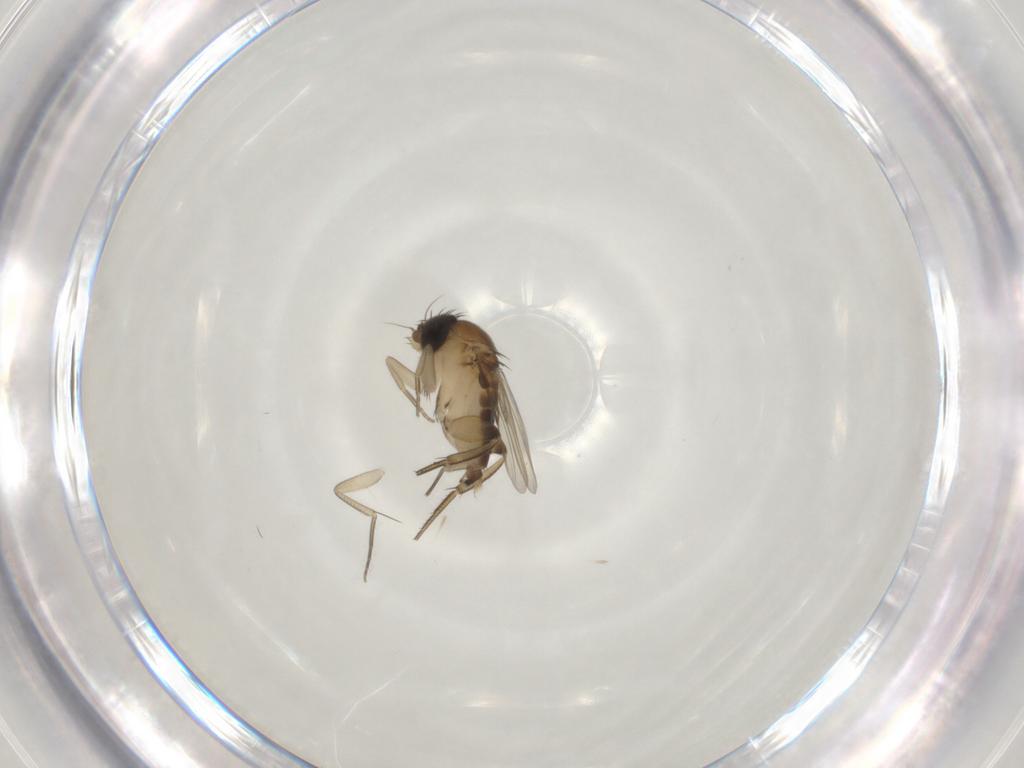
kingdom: Animalia
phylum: Arthropoda
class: Insecta
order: Diptera
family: Phoridae
